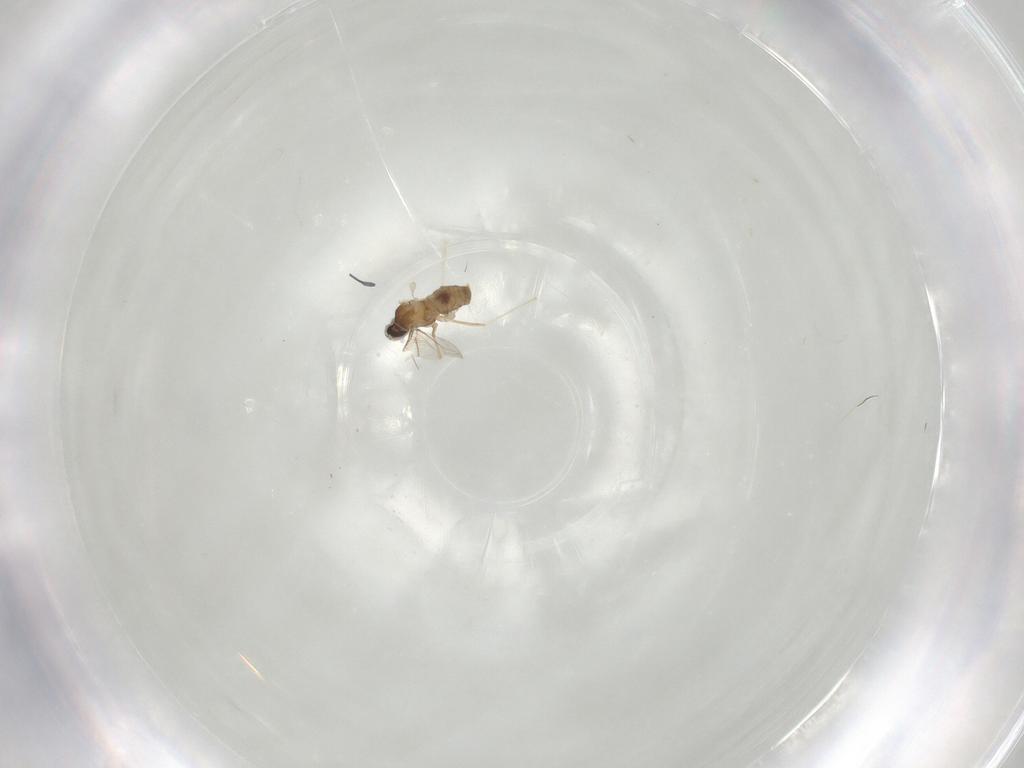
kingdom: Animalia
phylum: Arthropoda
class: Insecta
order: Diptera
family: Cecidomyiidae
